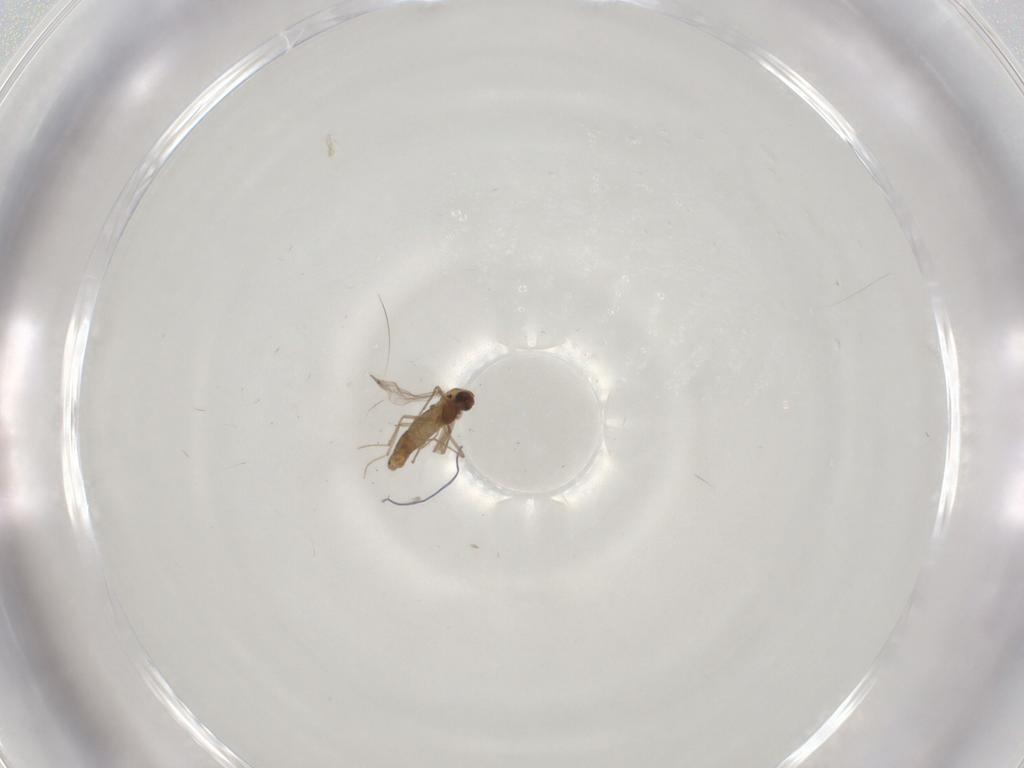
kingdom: Animalia
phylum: Arthropoda
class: Insecta
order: Diptera
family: Chironomidae
